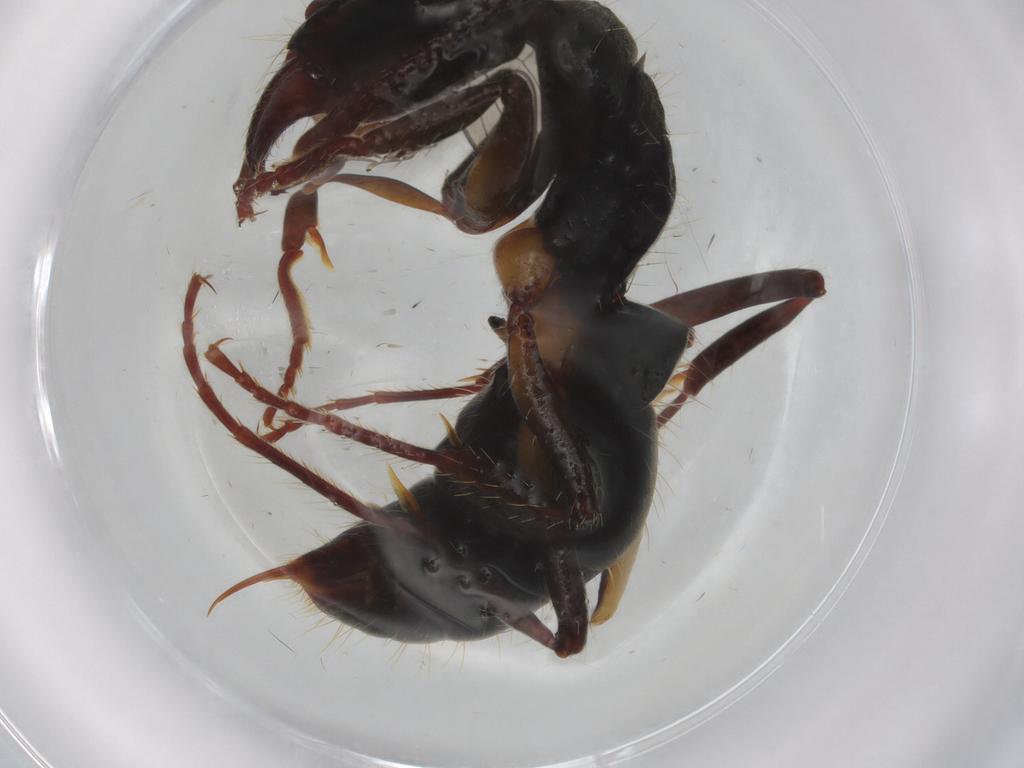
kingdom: Animalia
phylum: Arthropoda
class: Insecta
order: Hymenoptera
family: Formicidae
